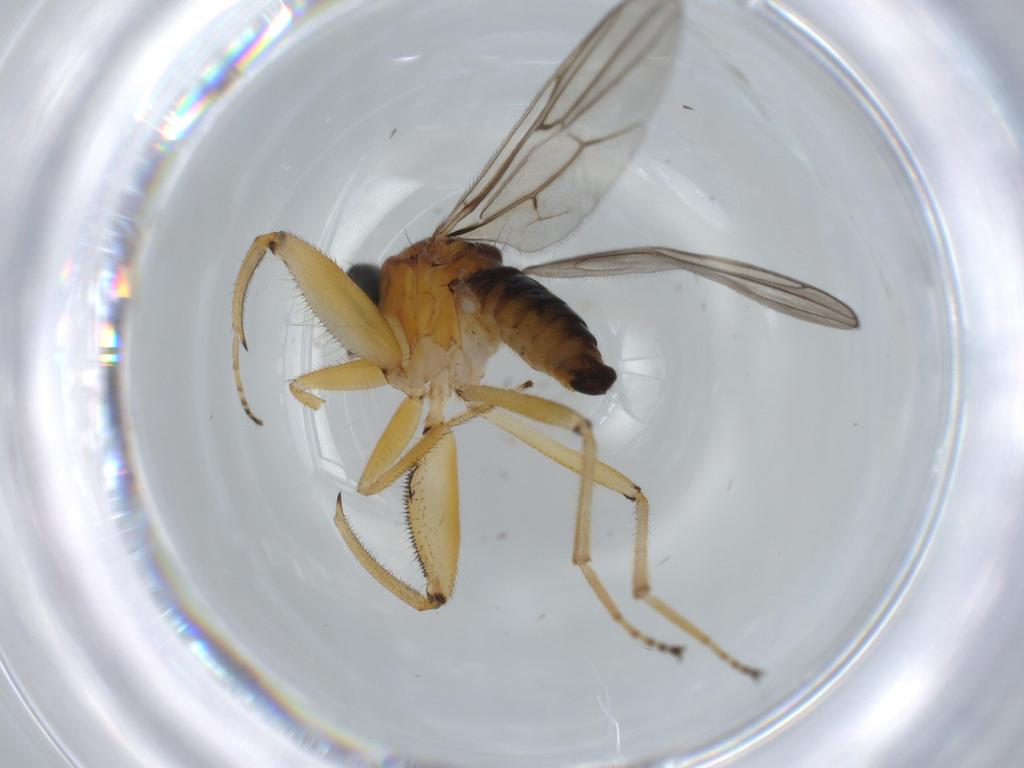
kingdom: Animalia
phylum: Arthropoda
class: Insecta
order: Diptera
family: Hybotidae
